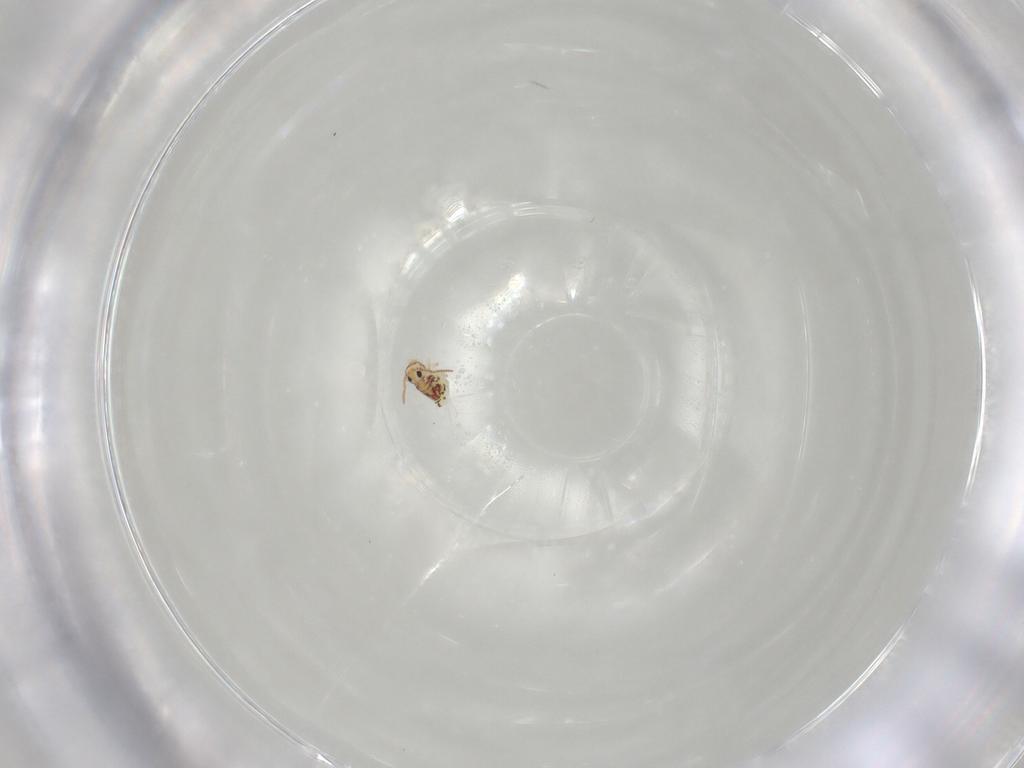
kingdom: Animalia
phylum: Arthropoda
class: Collembola
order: Symphypleona
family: Bourletiellidae
